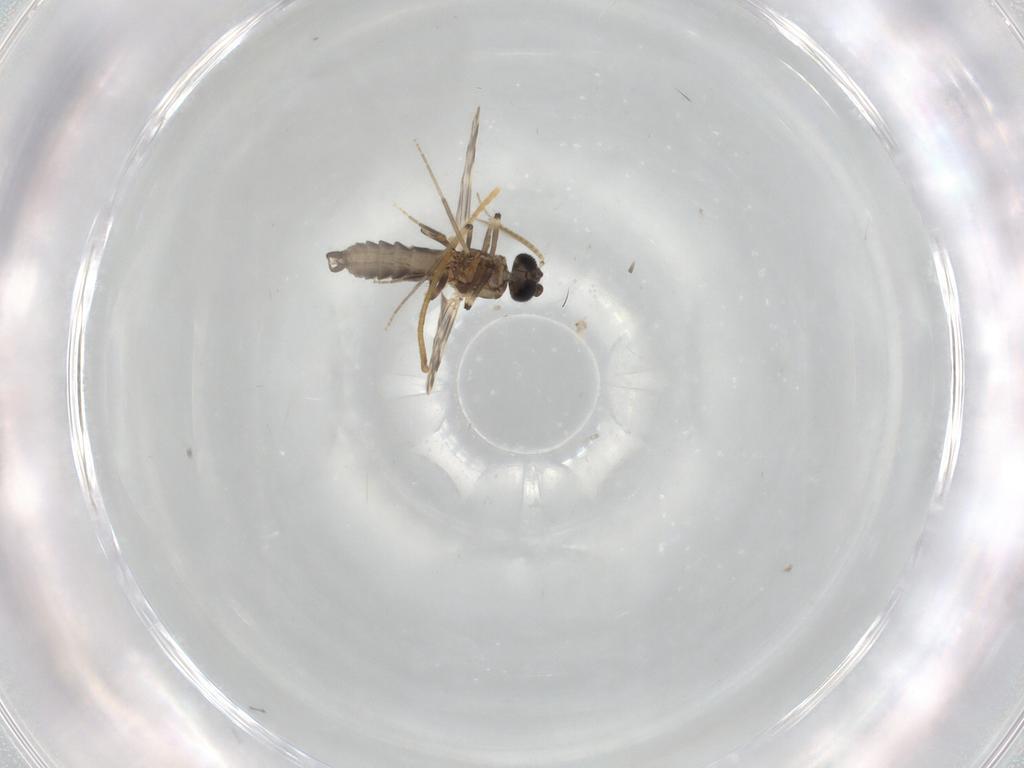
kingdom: Animalia
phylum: Arthropoda
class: Insecta
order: Diptera
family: Ceratopogonidae
